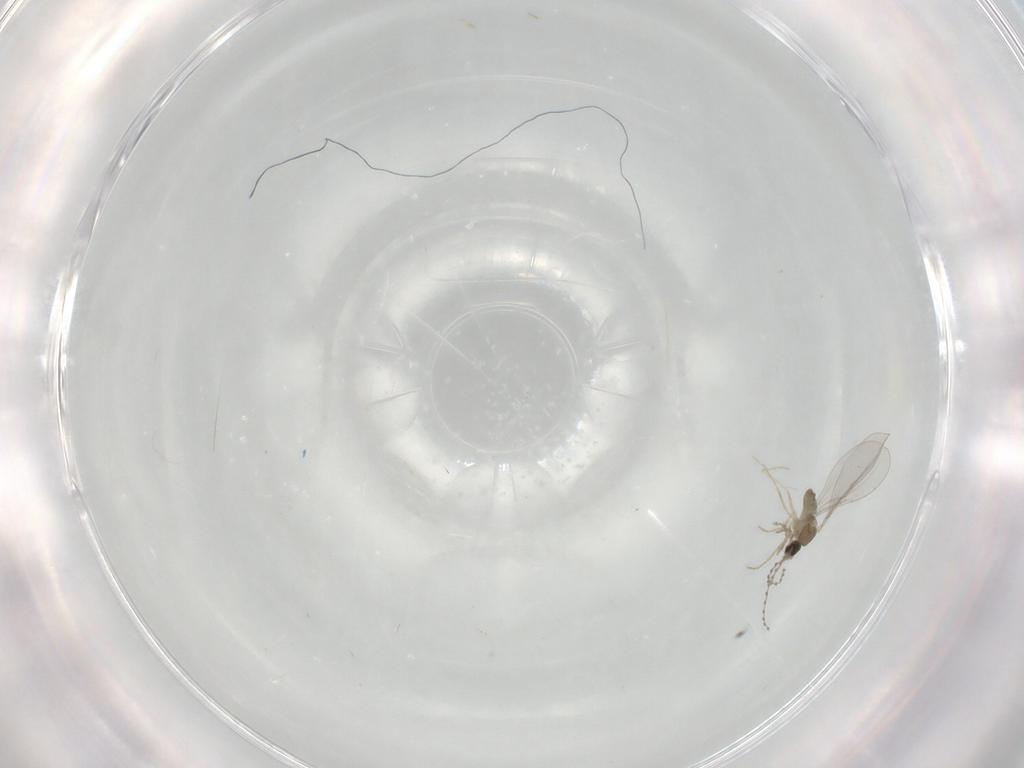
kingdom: Animalia
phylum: Arthropoda
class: Insecta
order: Diptera
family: Cecidomyiidae
